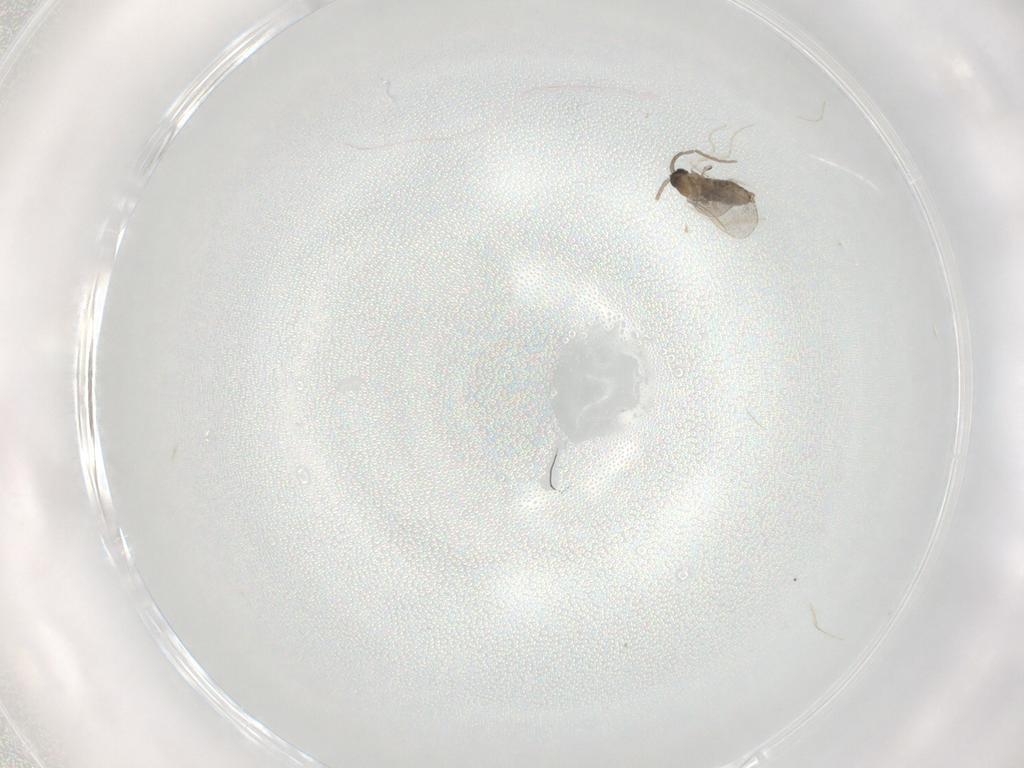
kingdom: Animalia
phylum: Arthropoda
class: Insecta
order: Diptera
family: Cecidomyiidae
